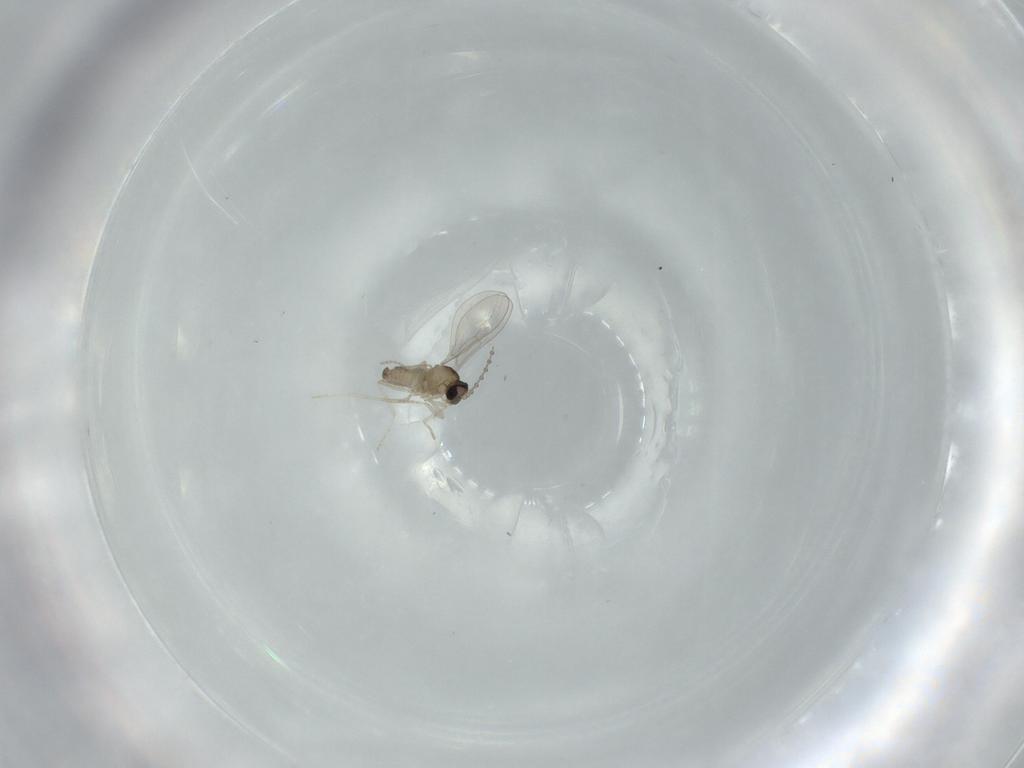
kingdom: Animalia
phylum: Arthropoda
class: Insecta
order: Diptera
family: Cecidomyiidae
